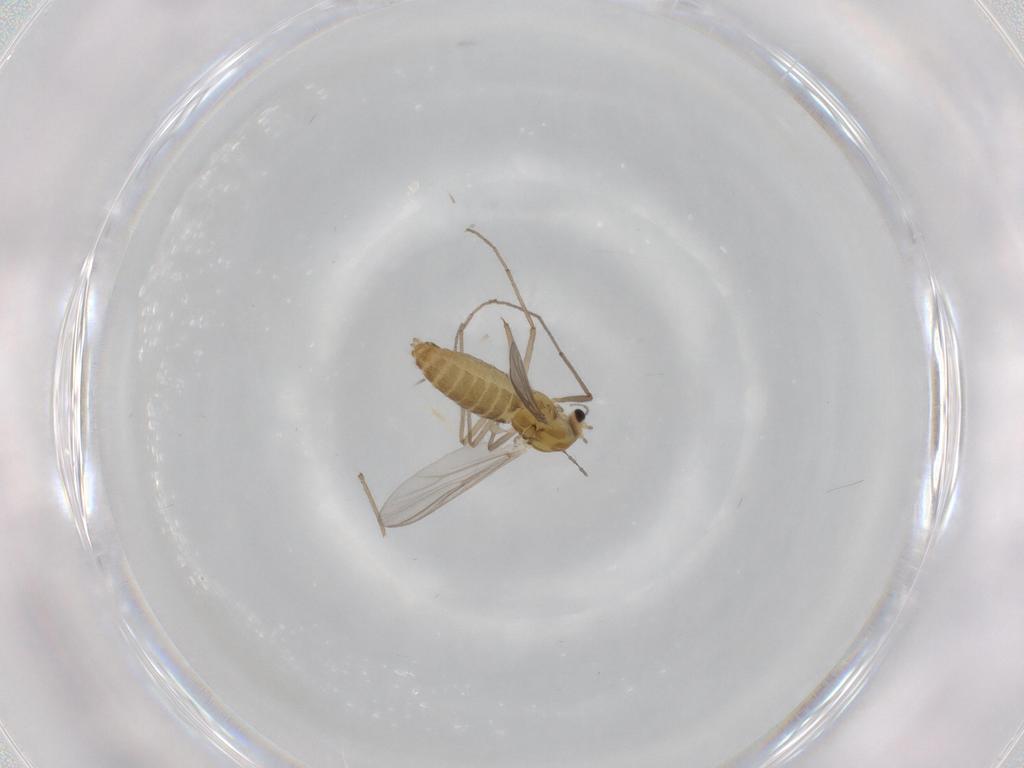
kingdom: Animalia
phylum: Arthropoda
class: Insecta
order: Diptera
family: Chironomidae
